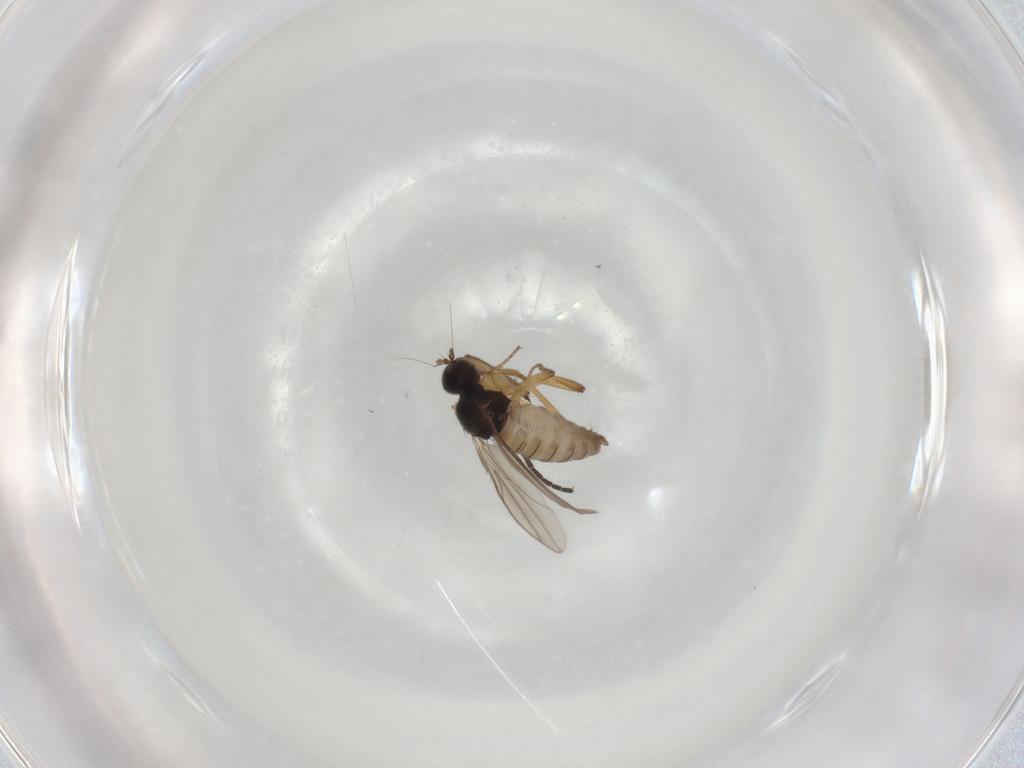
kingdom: Animalia
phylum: Arthropoda
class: Insecta
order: Diptera
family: Hybotidae
